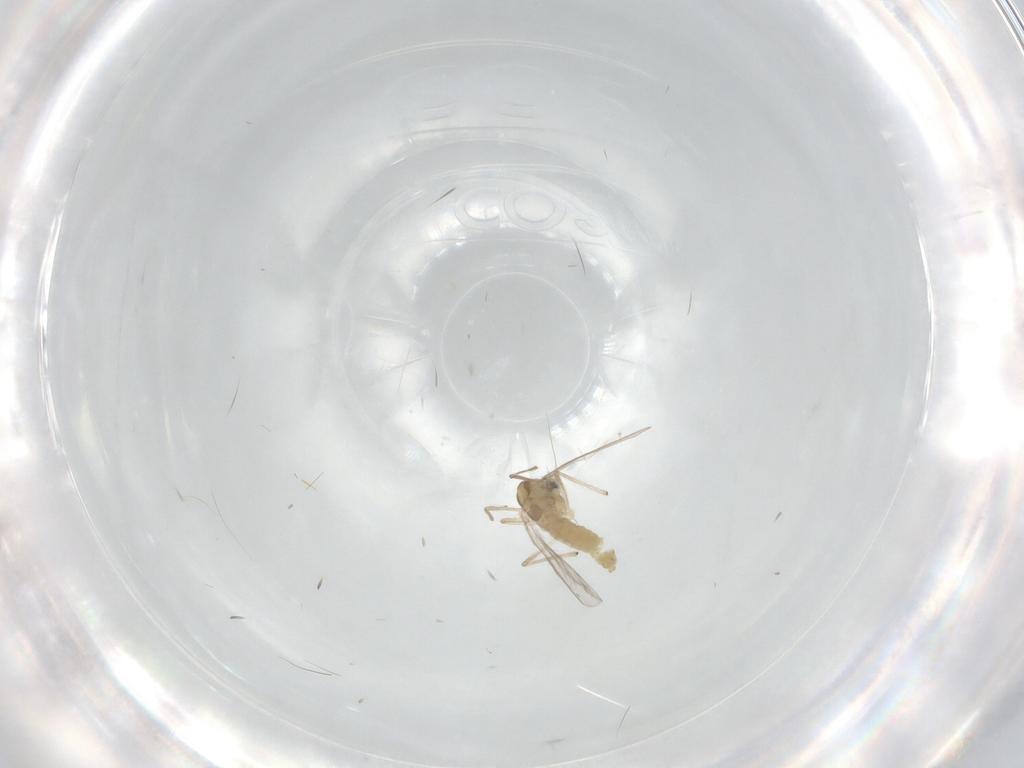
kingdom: Animalia
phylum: Arthropoda
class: Insecta
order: Diptera
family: Chironomidae
